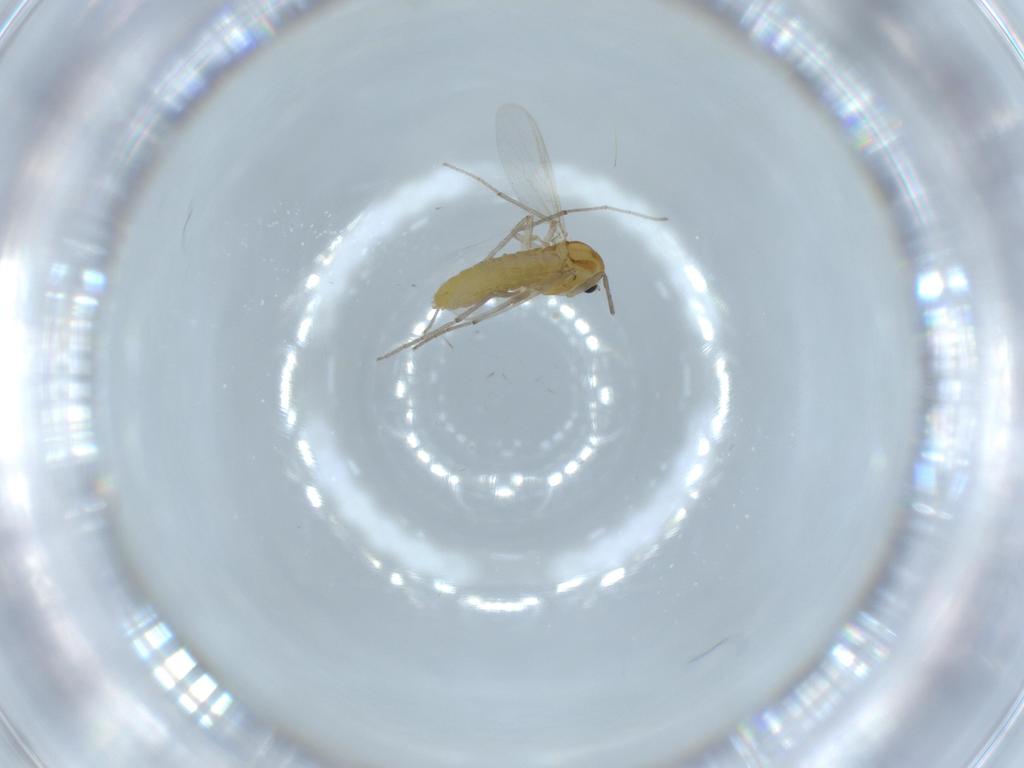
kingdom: Animalia
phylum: Arthropoda
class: Insecta
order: Diptera
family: Chironomidae
